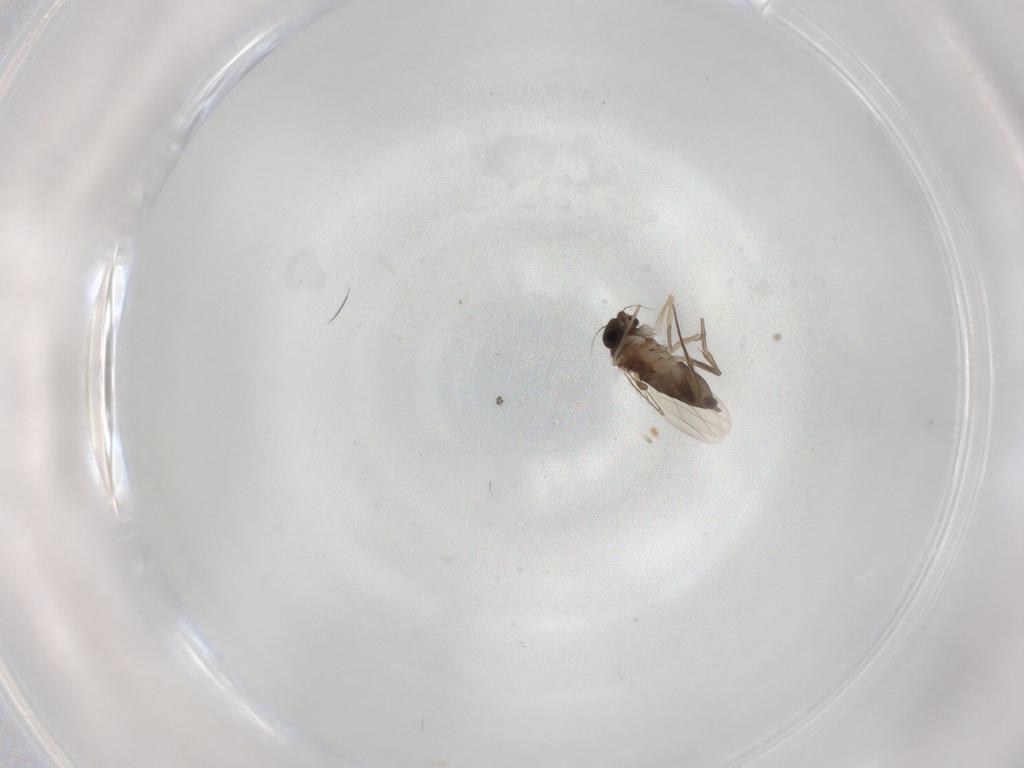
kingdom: Animalia
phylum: Arthropoda
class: Insecta
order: Diptera
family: Phoridae
